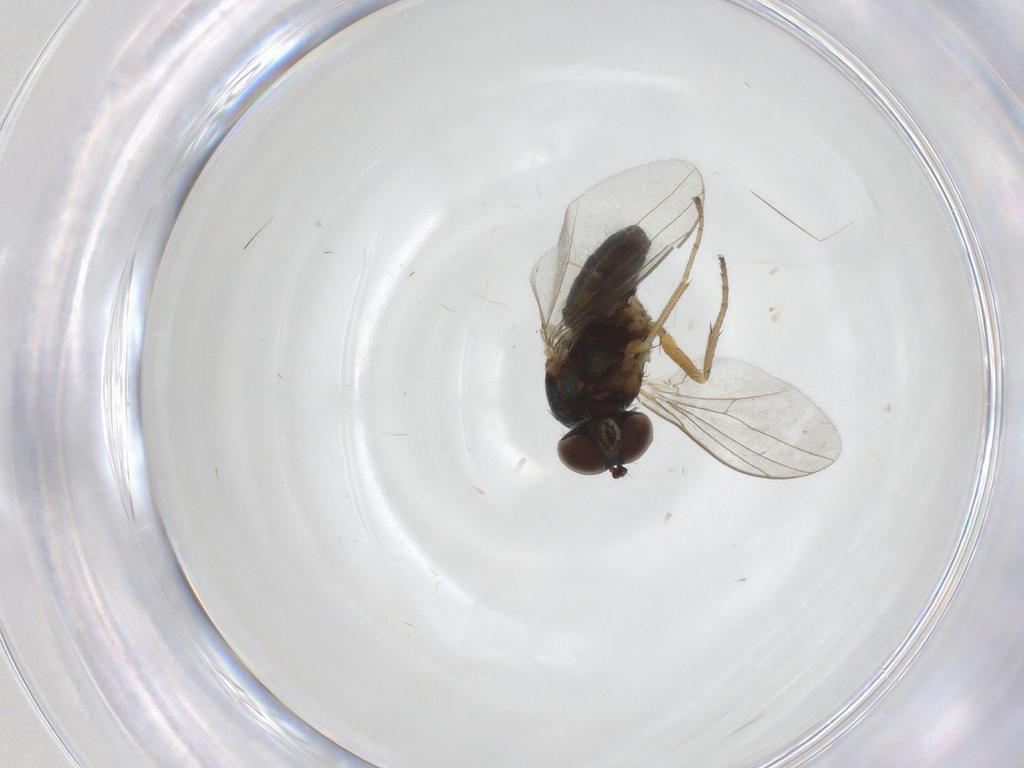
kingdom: Animalia
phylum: Arthropoda
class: Insecta
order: Diptera
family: Dolichopodidae
